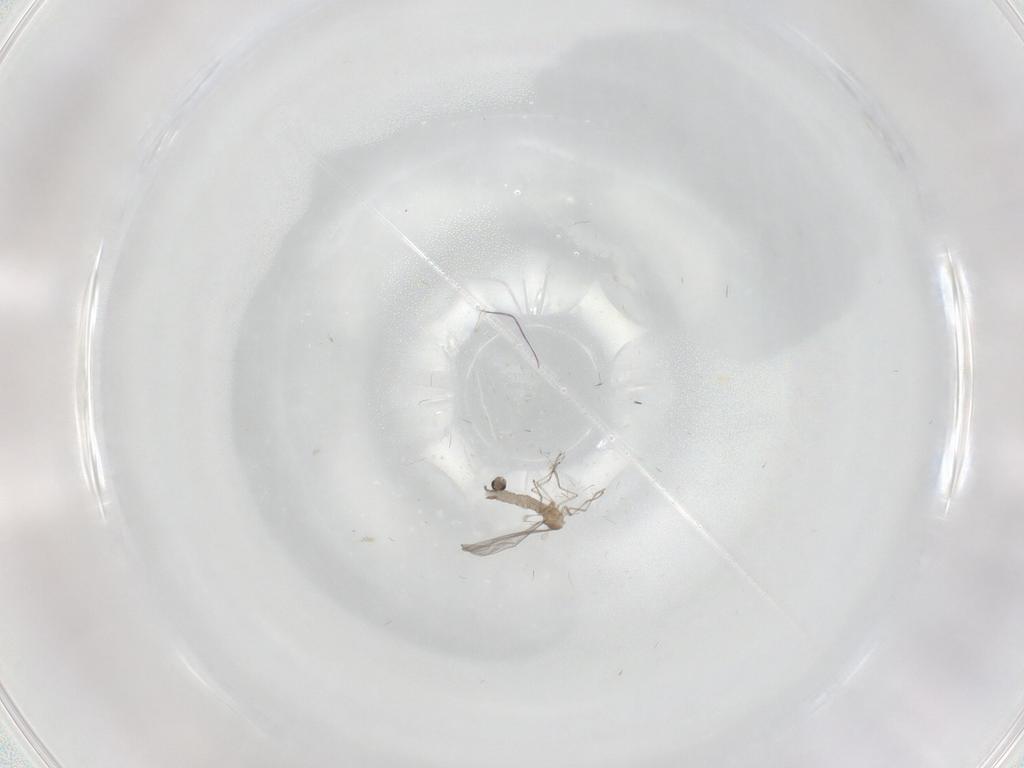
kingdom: Animalia
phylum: Arthropoda
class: Insecta
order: Diptera
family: Cecidomyiidae
